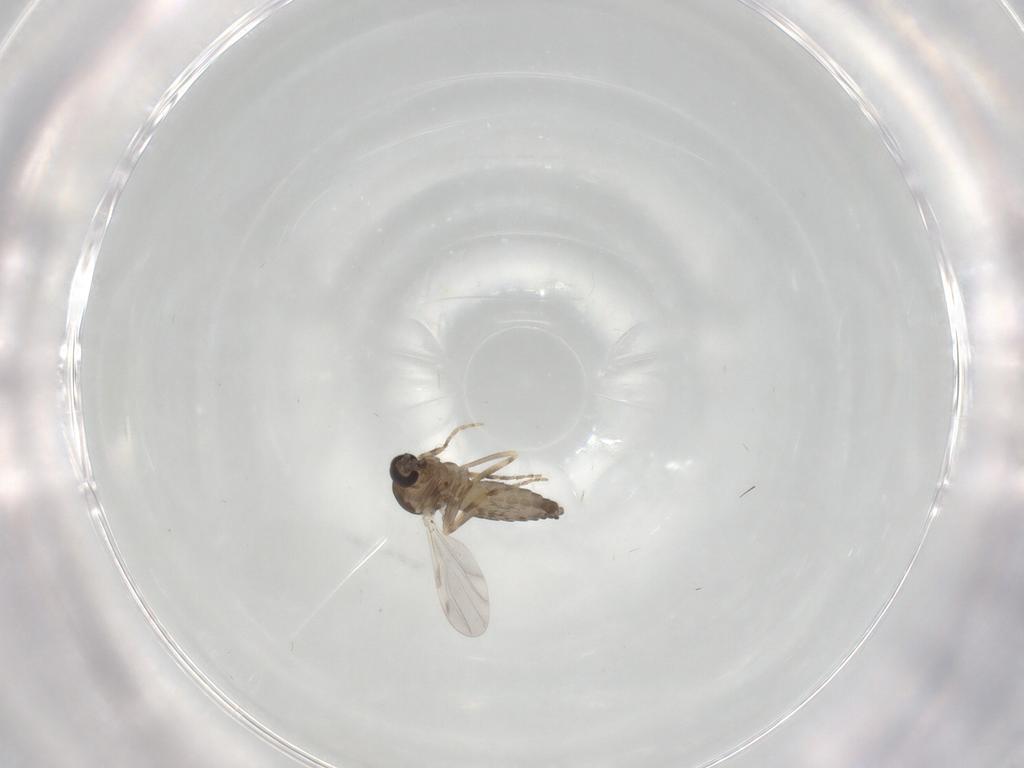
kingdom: Animalia
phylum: Arthropoda
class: Insecta
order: Diptera
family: Ceratopogonidae
